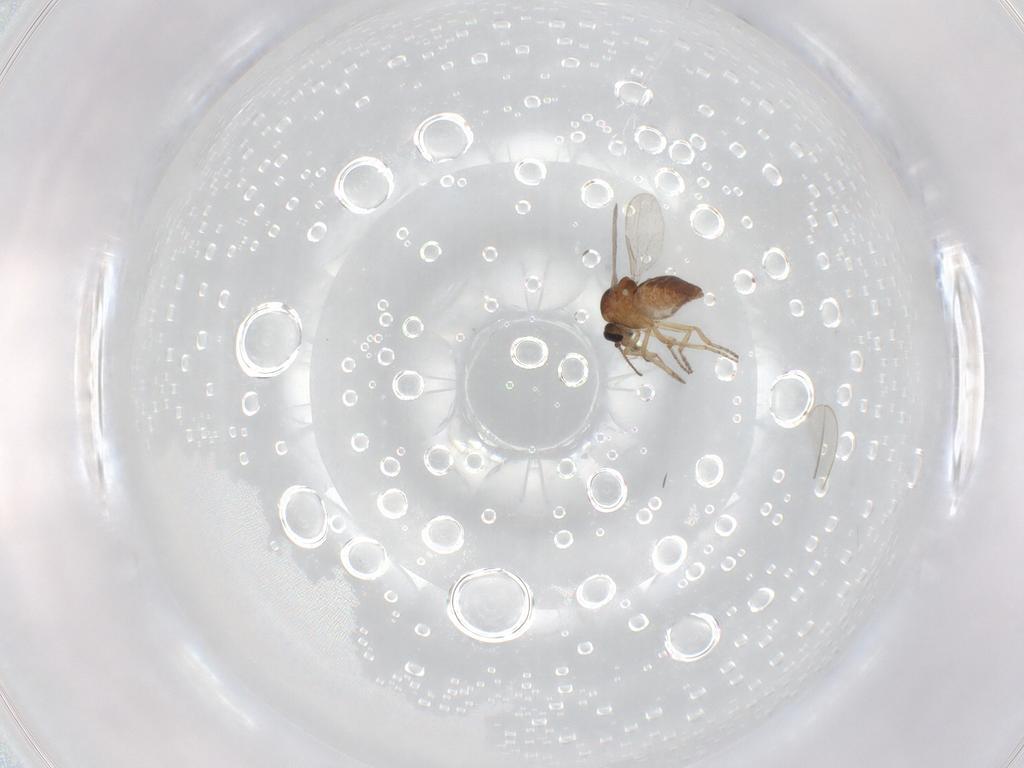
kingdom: Animalia
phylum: Arthropoda
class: Insecta
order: Diptera
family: Ceratopogonidae
